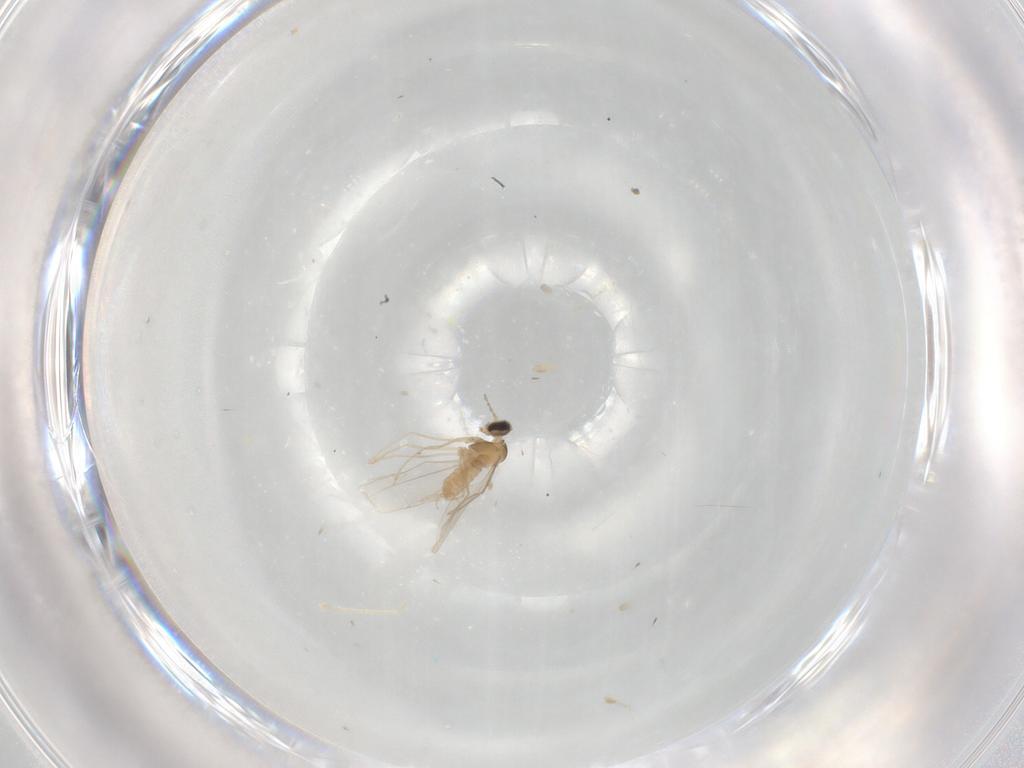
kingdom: Animalia
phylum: Arthropoda
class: Insecta
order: Diptera
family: Cecidomyiidae
